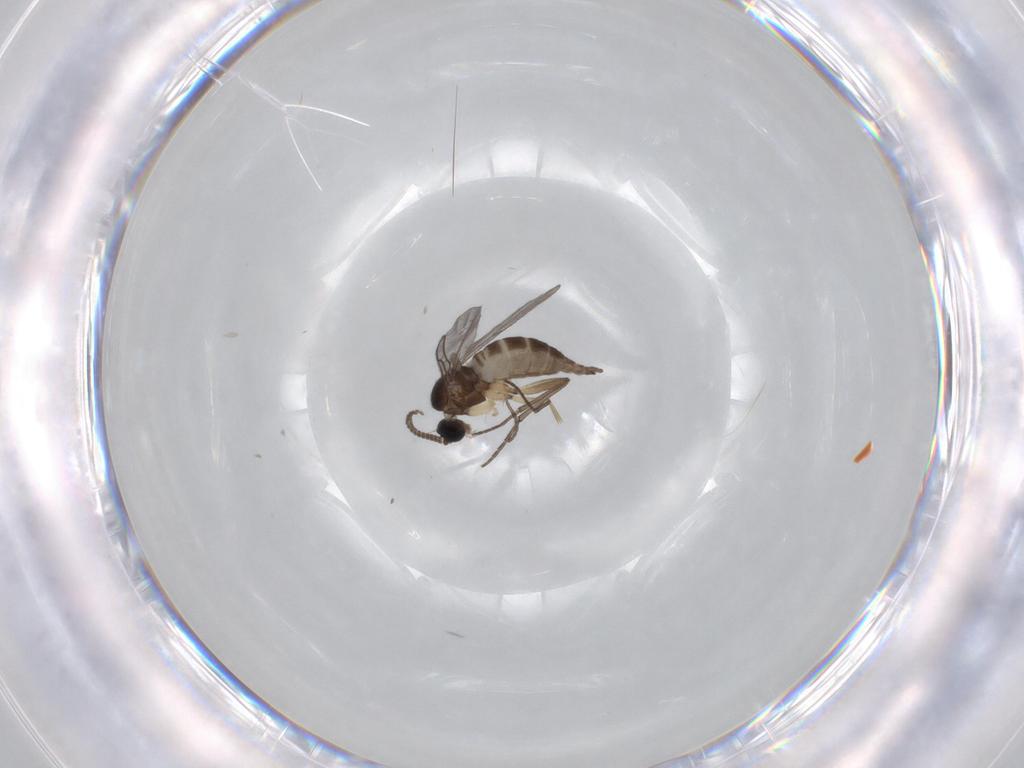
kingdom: Animalia
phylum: Arthropoda
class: Insecta
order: Diptera
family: Sciaridae
